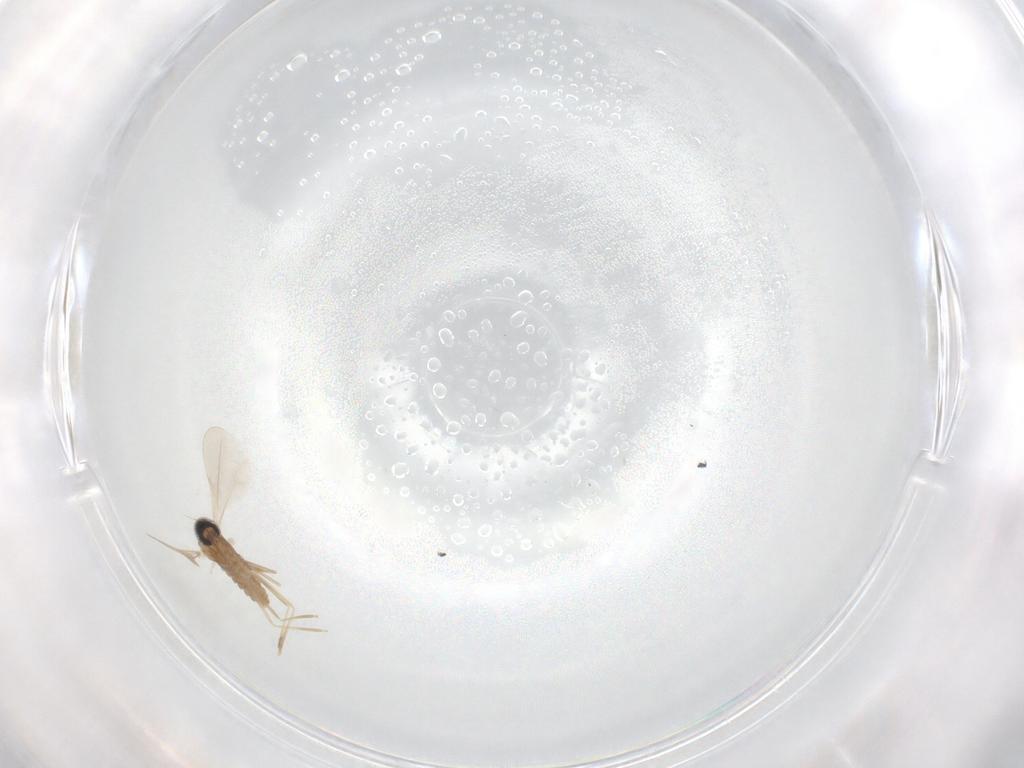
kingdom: Animalia
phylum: Arthropoda
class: Insecta
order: Diptera
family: Cecidomyiidae
